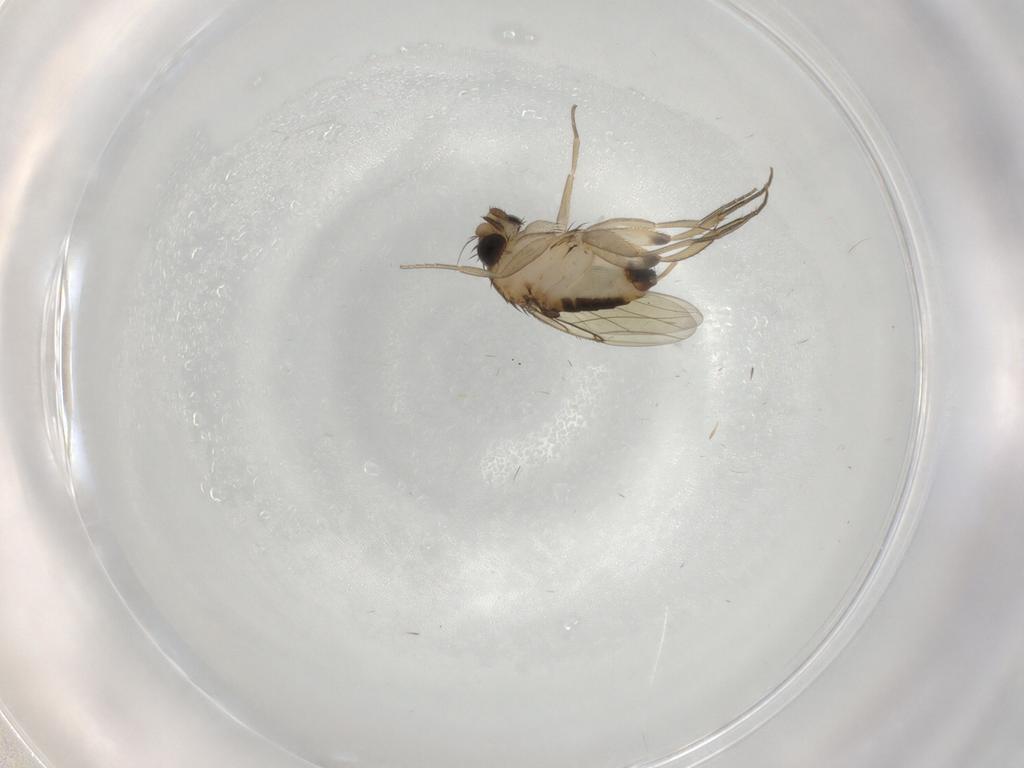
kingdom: Animalia
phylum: Arthropoda
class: Insecta
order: Diptera
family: Phoridae
